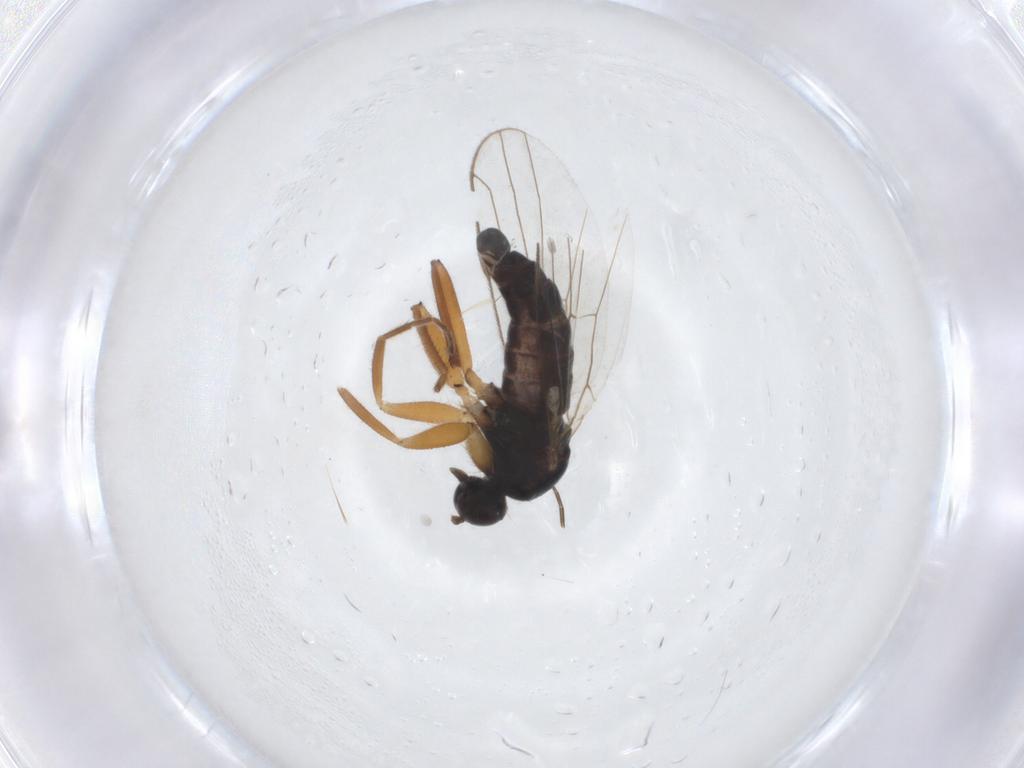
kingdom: Animalia
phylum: Arthropoda
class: Insecta
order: Diptera
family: Hybotidae
